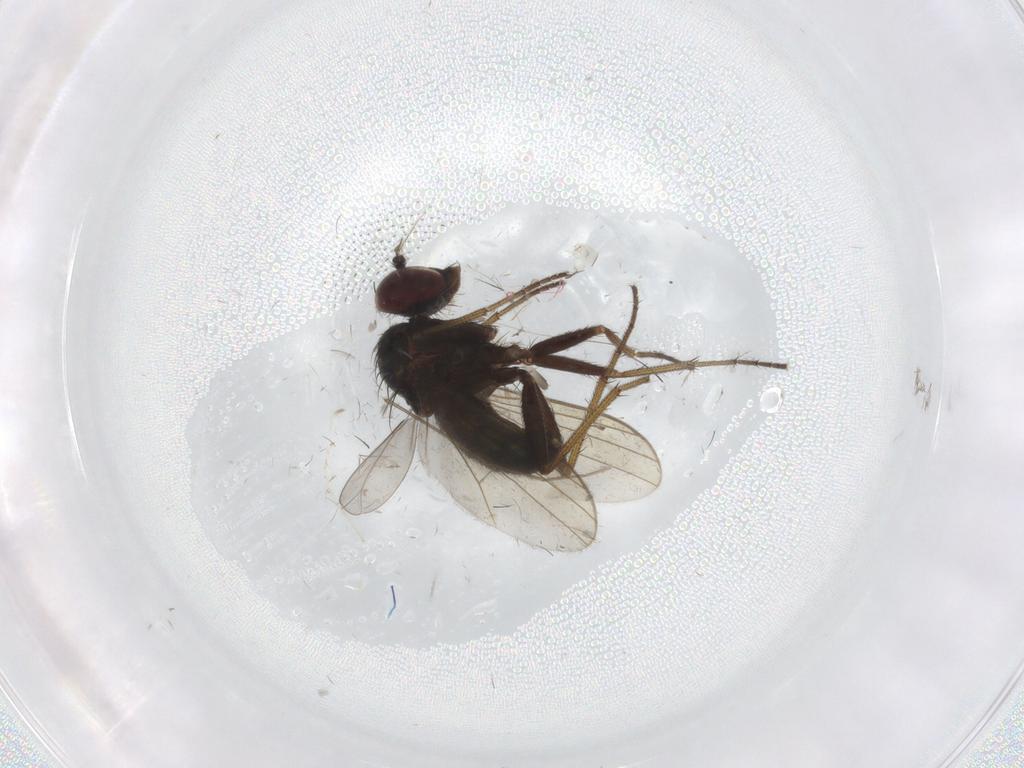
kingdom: Animalia
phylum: Arthropoda
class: Insecta
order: Diptera
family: Dolichopodidae
